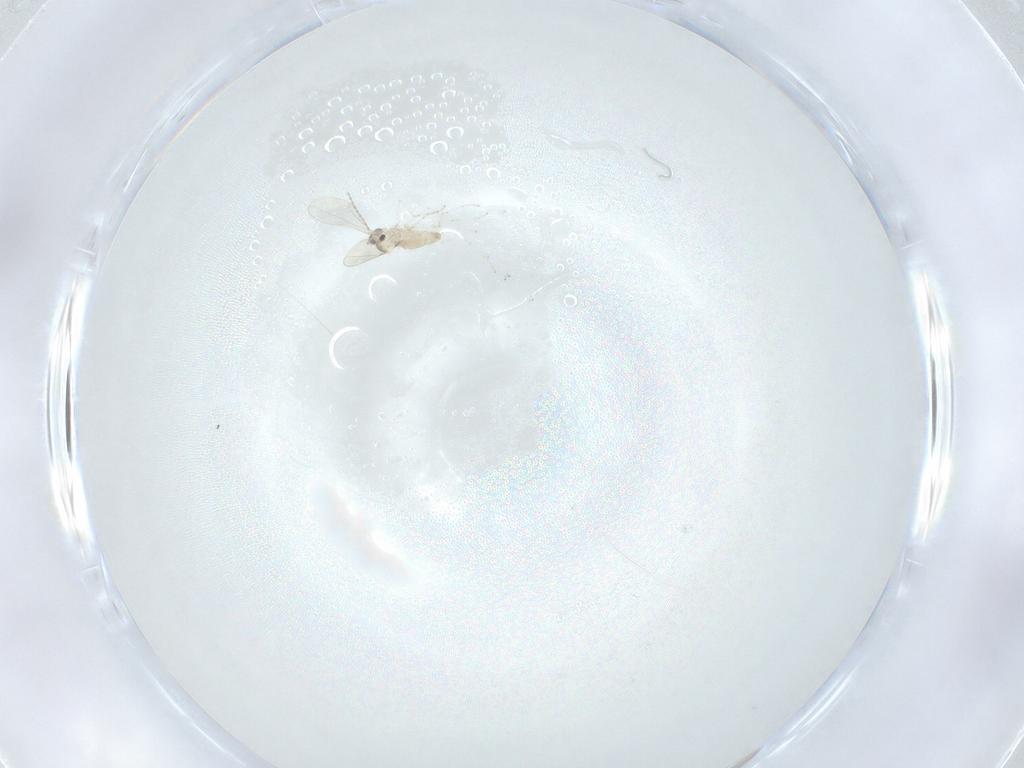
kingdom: Animalia
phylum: Arthropoda
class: Insecta
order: Diptera
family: Cecidomyiidae
